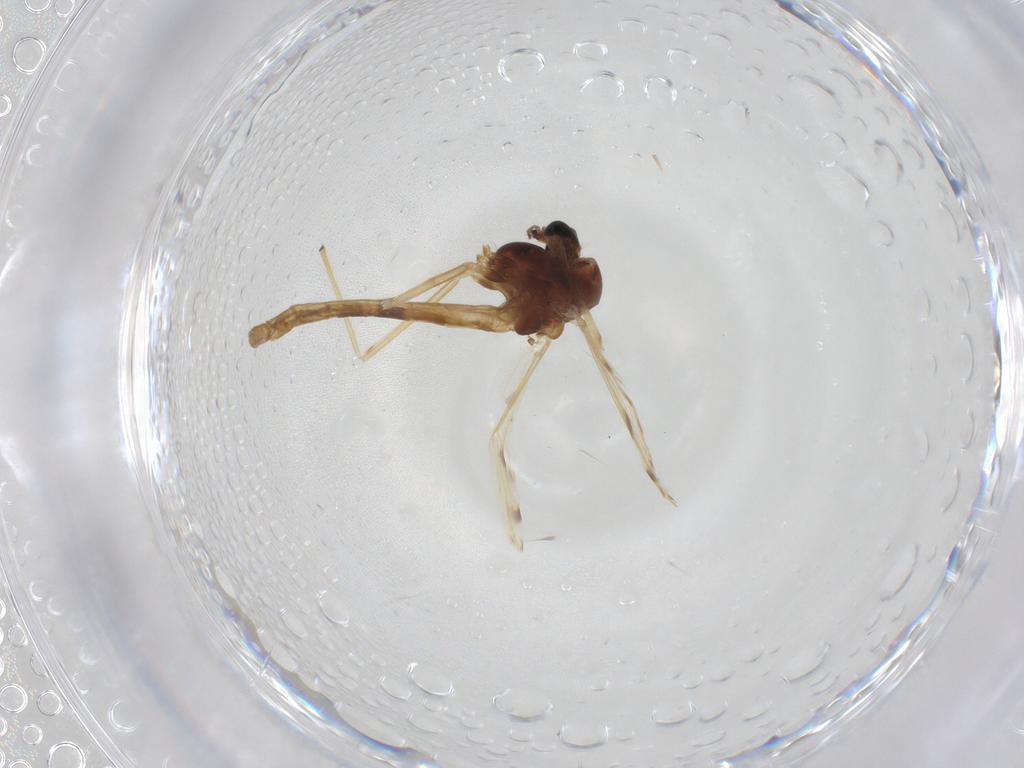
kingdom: Animalia
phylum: Arthropoda
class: Insecta
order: Diptera
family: Chironomidae
